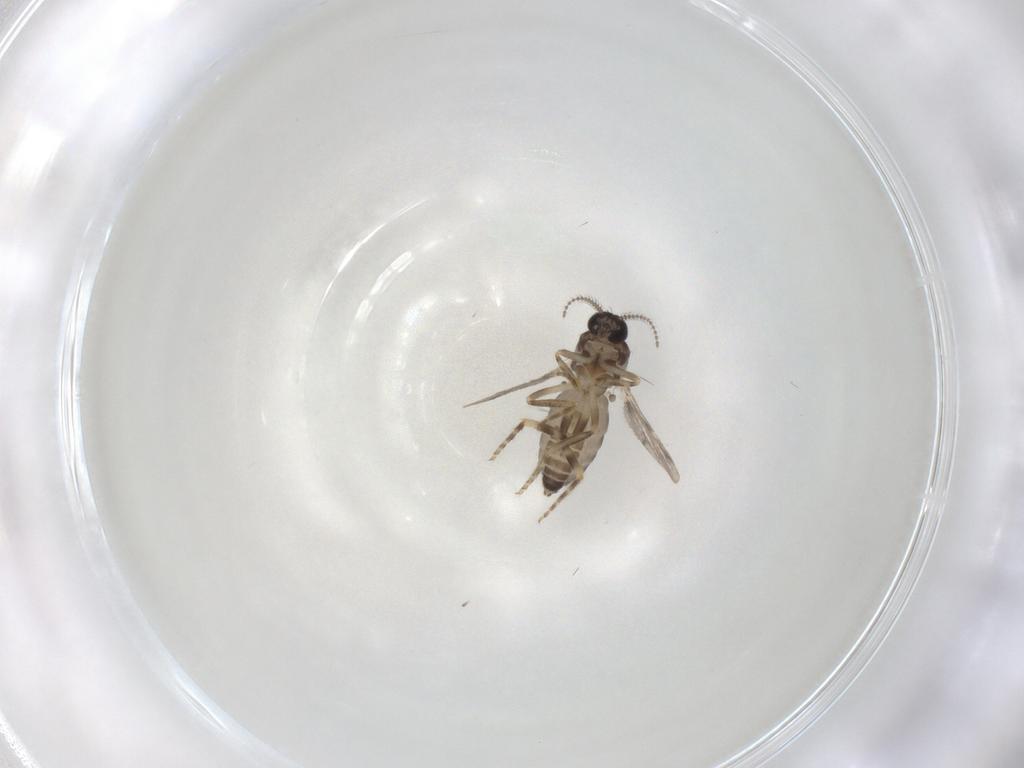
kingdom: Animalia
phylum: Arthropoda
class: Insecta
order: Diptera
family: Ceratopogonidae
